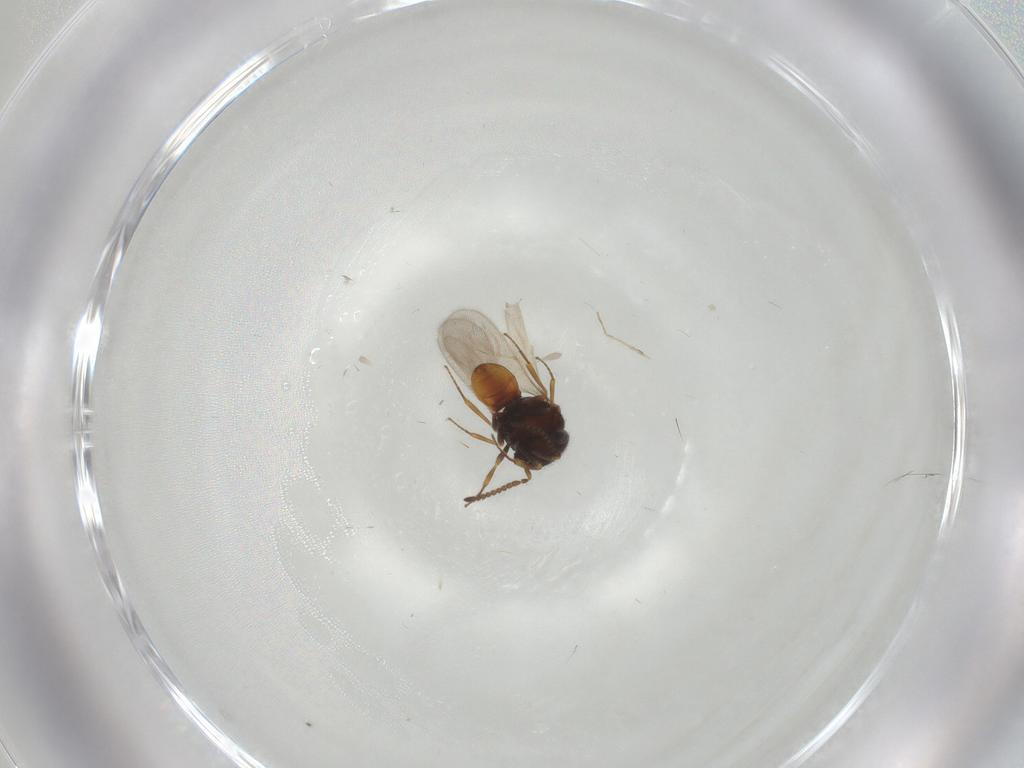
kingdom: Animalia
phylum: Arthropoda
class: Insecta
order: Hymenoptera
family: Scelionidae
